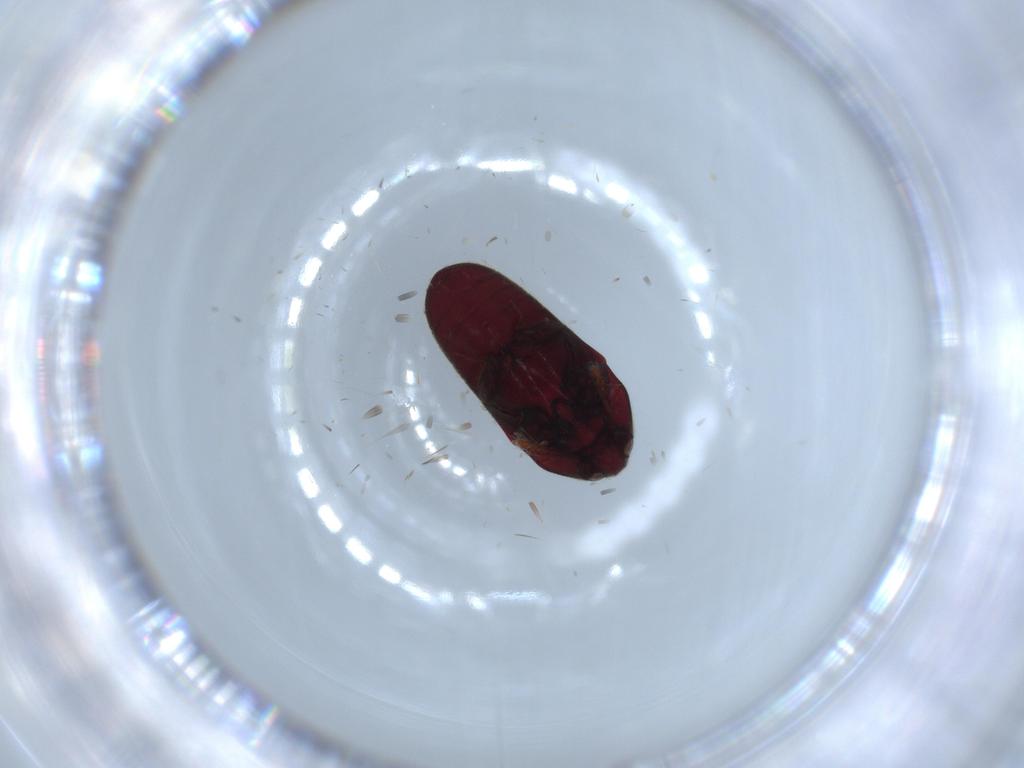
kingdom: Animalia
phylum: Arthropoda
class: Insecta
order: Coleoptera
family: Throscidae
